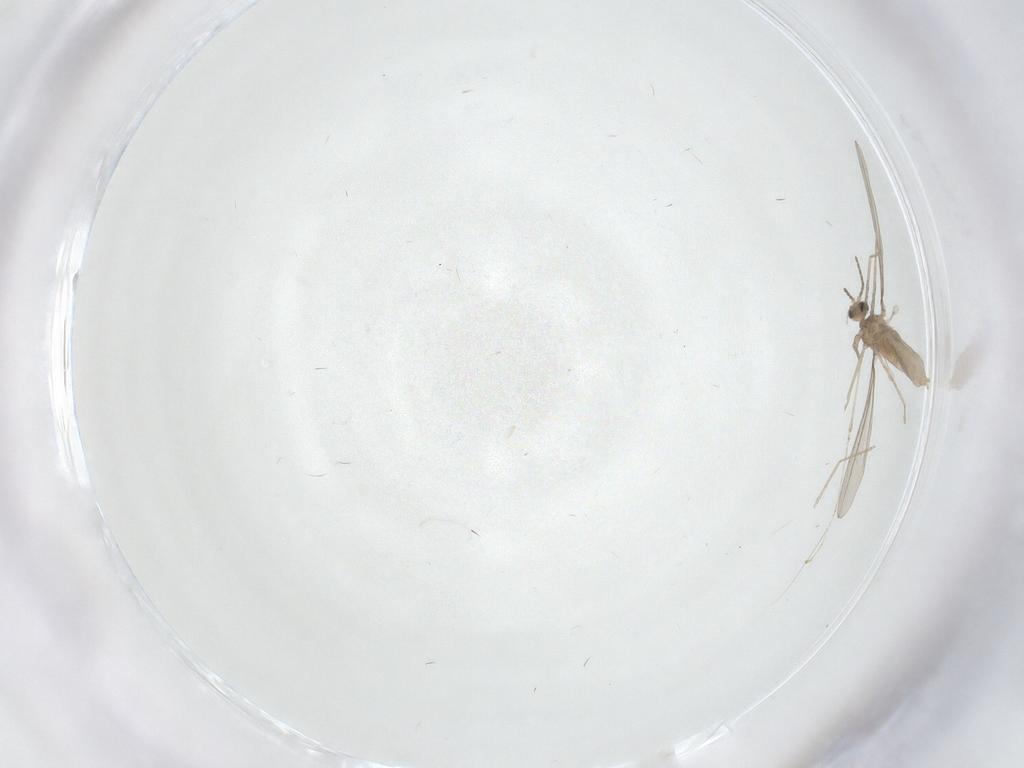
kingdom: Animalia
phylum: Arthropoda
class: Insecta
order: Diptera
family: Cecidomyiidae
